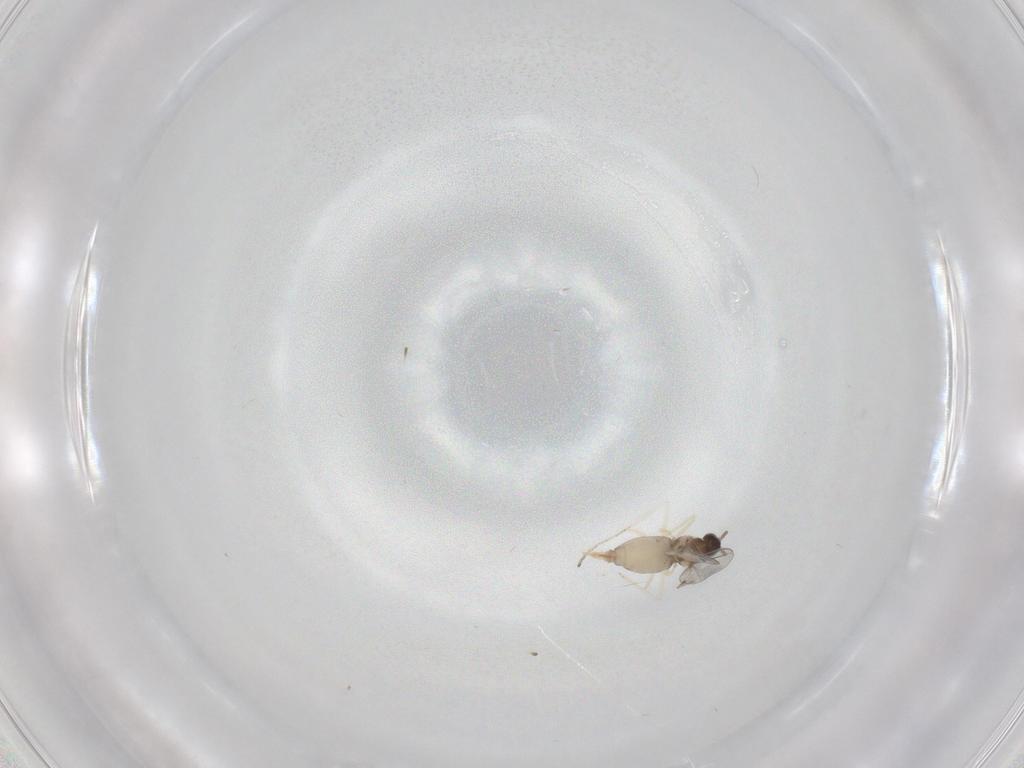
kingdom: Animalia
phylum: Arthropoda
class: Insecta
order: Diptera
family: Cecidomyiidae
